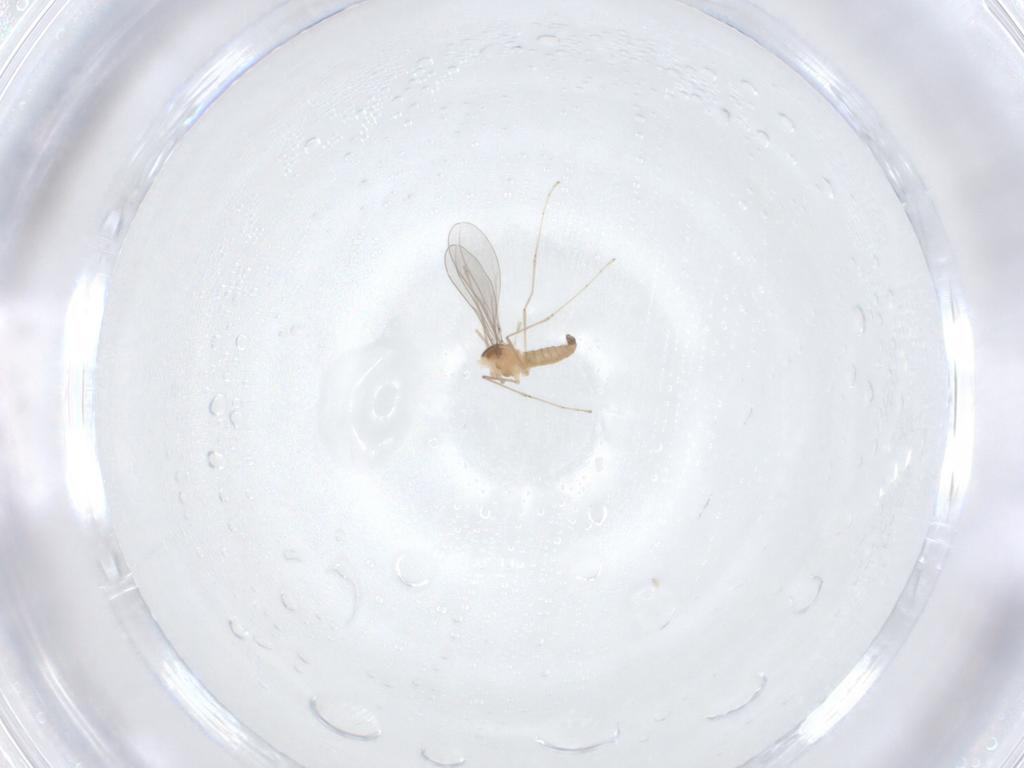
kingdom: Animalia
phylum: Arthropoda
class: Insecta
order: Diptera
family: Cecidomyiidae
